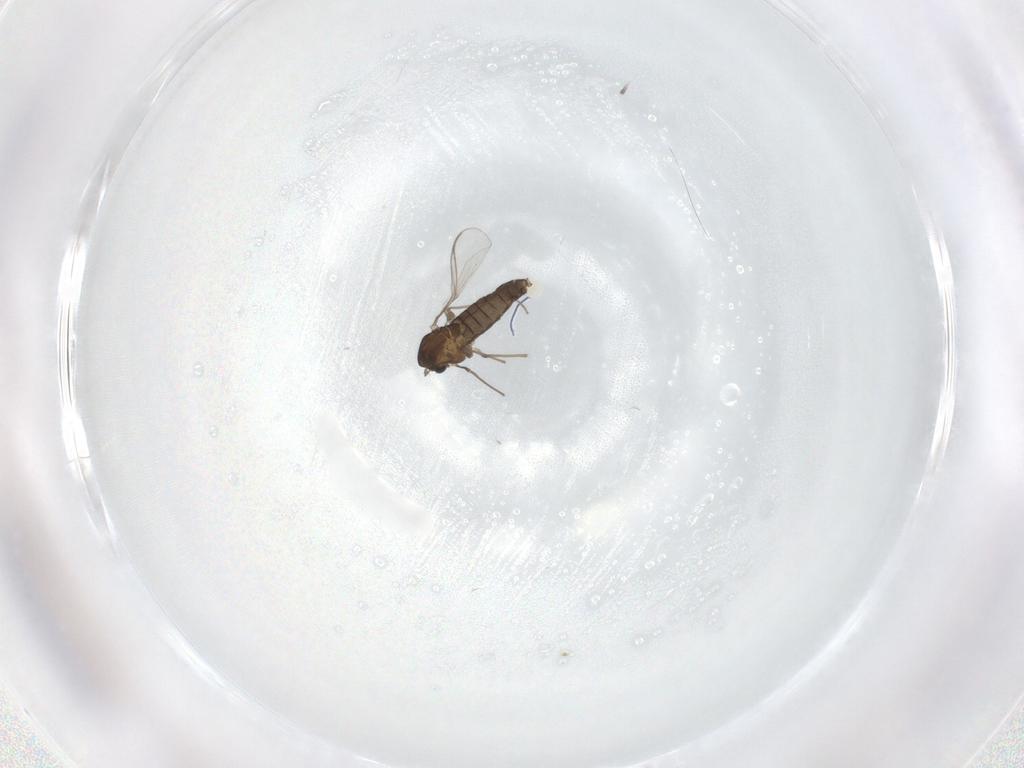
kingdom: Animalia
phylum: Arthropoda
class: Insecta
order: Diptera
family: Chironomidae
